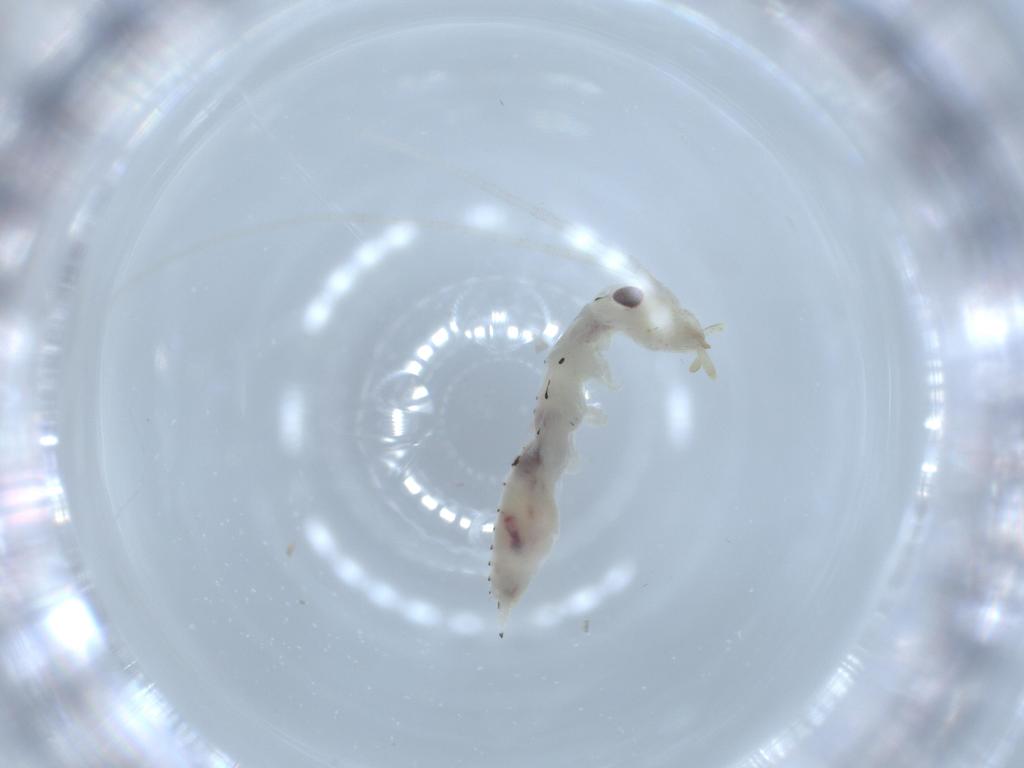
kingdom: Animalia
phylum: Arthropoda
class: Insecta
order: Orthoptera
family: Oecanthidae
